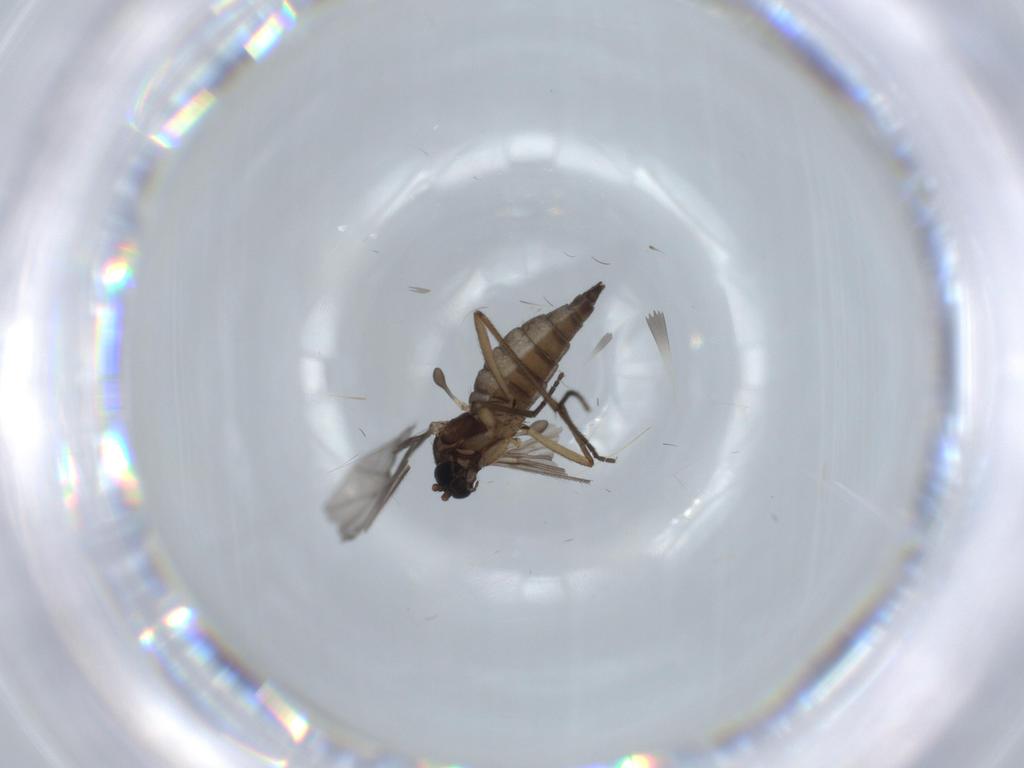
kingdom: Animalia
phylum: Arthropoda
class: Insecta
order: Diptera
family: Sciaridae
